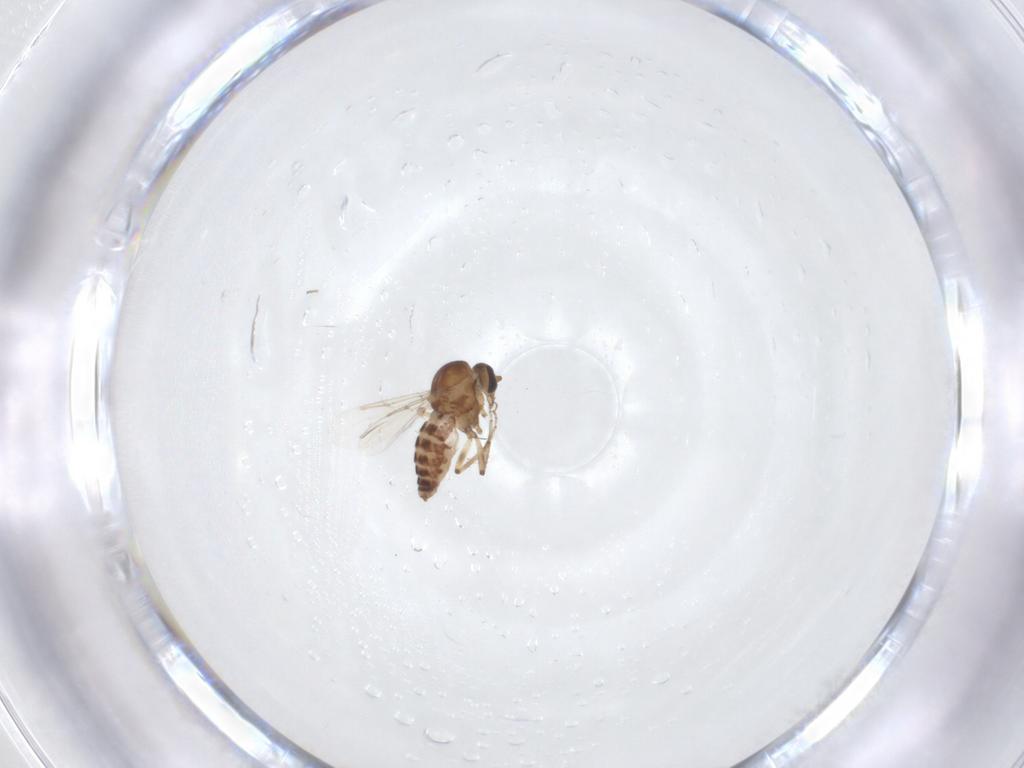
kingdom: Animalia
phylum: Arthropoda
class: Insecta
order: Diptera
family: Ceratopogonidae
